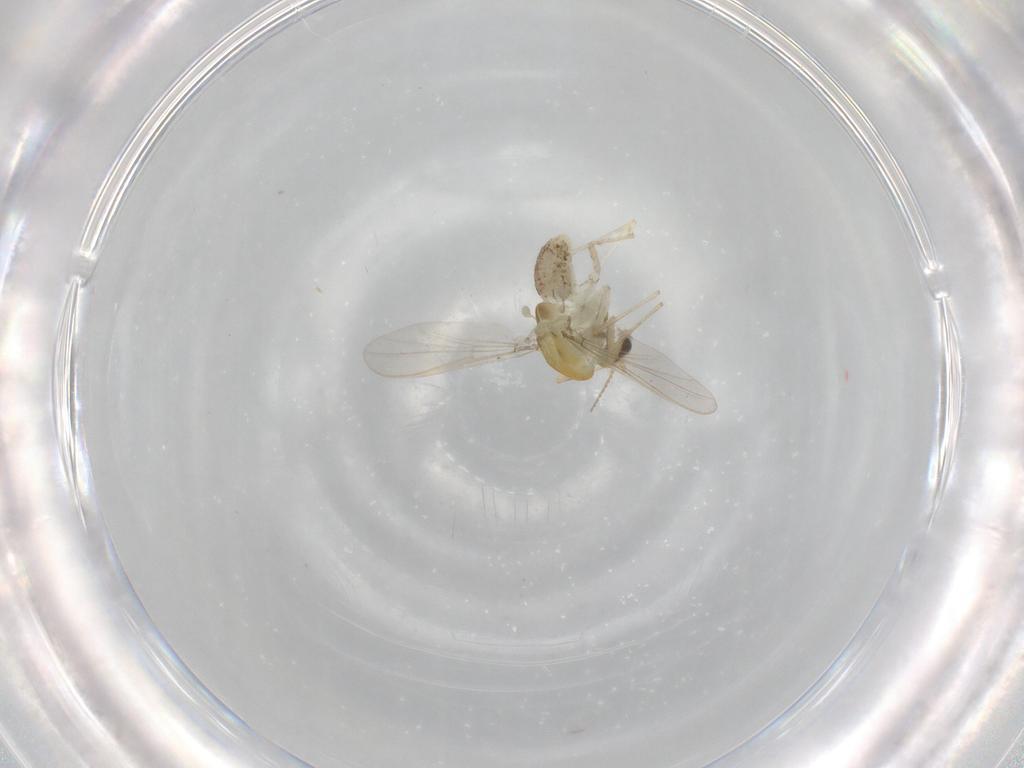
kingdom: Animalia
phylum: Arthropoda
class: Insecta
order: Diptera
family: Chironomidae
